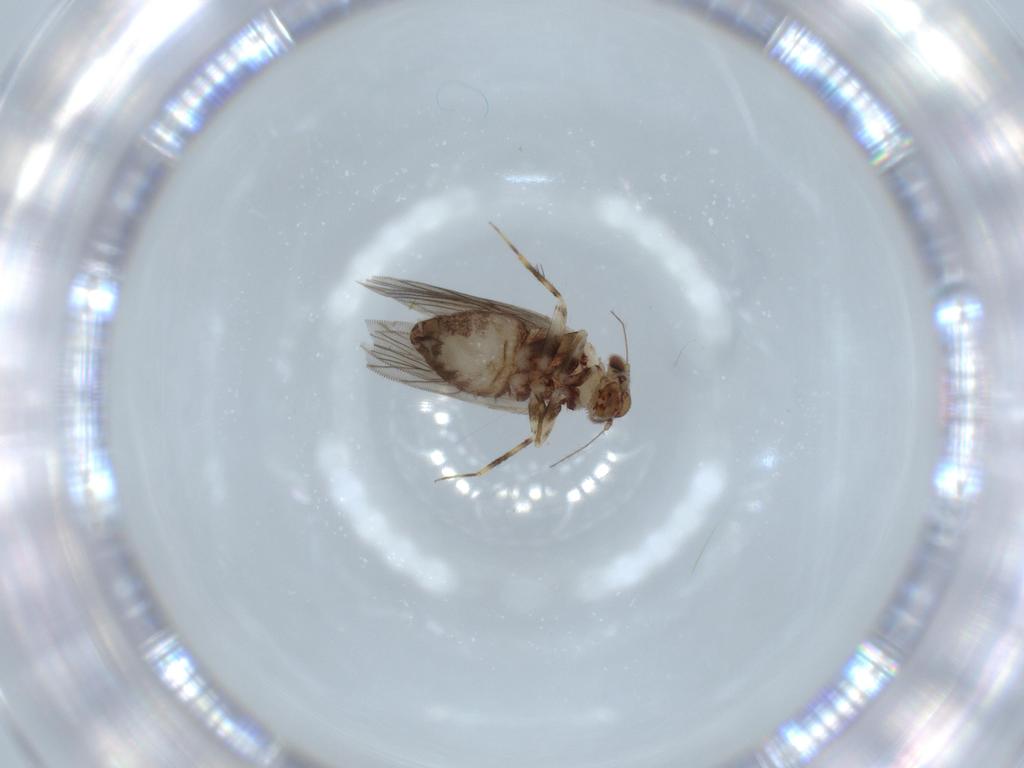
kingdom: Animalia
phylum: Arthropoda
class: Insecta
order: Psocodea
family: Lepidopsocidae
